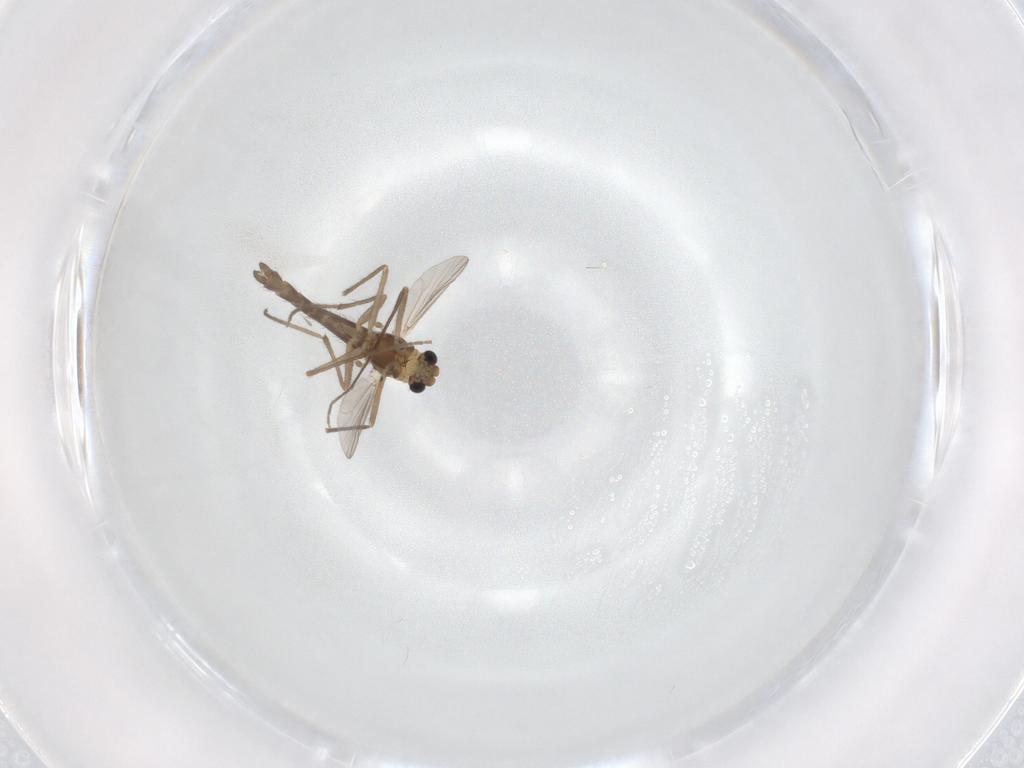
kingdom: Animalia
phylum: Arthropoda
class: Insecta
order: Diptera
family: Chironomidae
